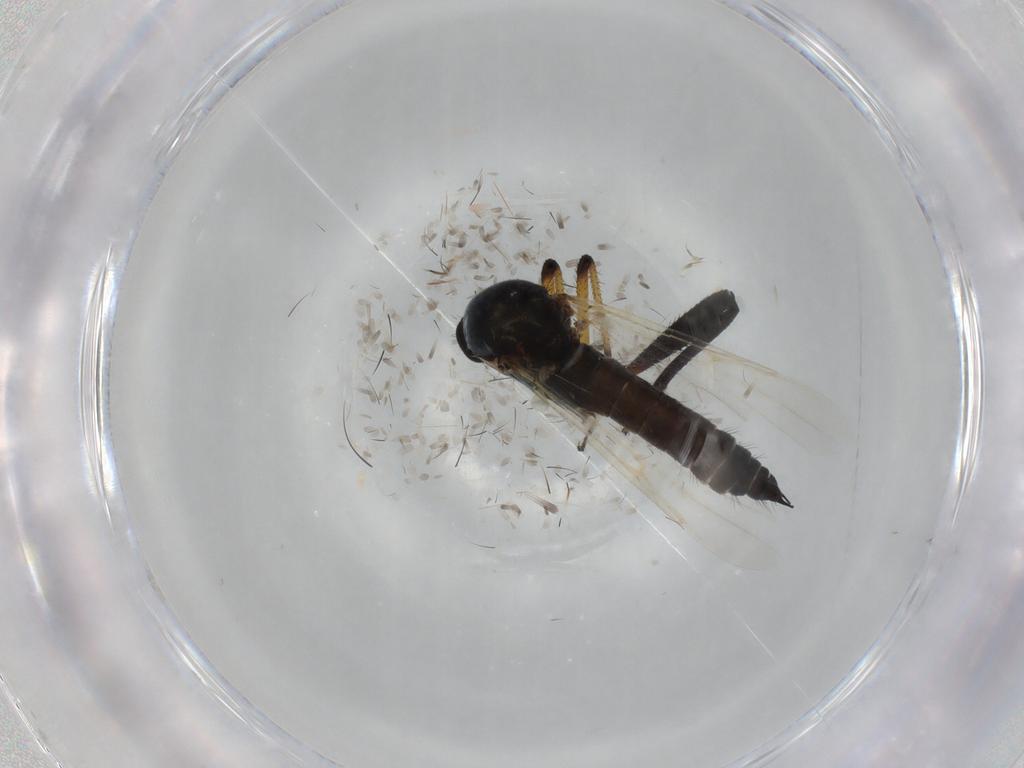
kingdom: Animalia
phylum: Arthropoda
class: Insecta
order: Diptera
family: Ceratopogonidae
